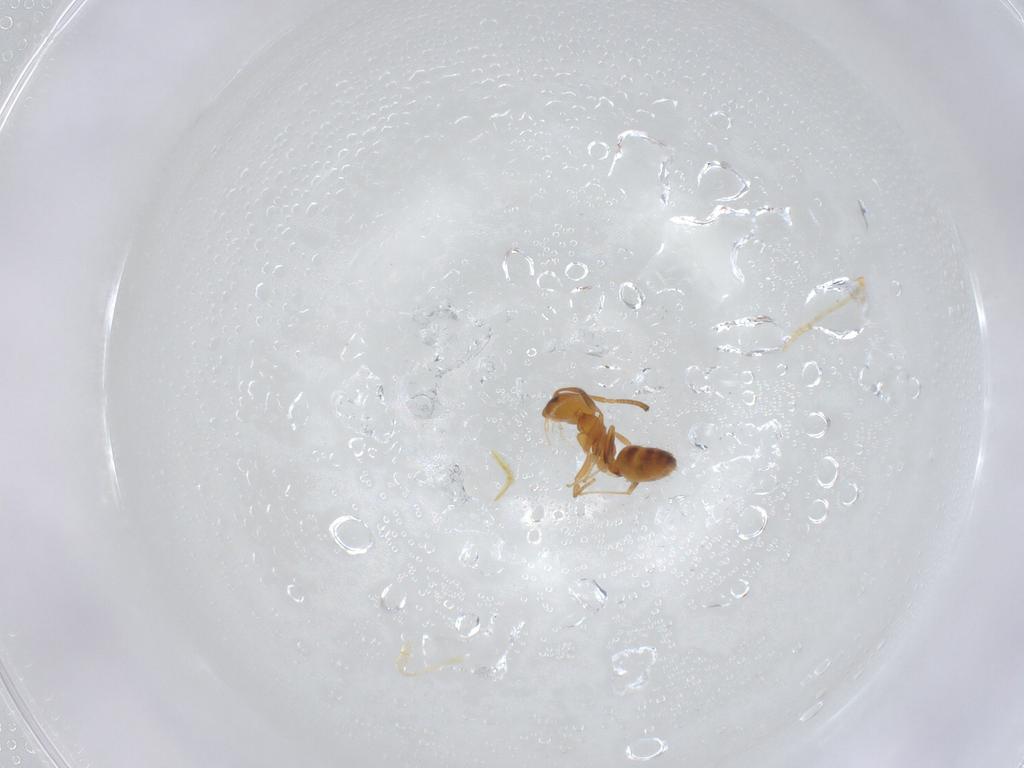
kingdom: Animalia
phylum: Arthropoda
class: Insecta
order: Hymenoptera
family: Formicidae
